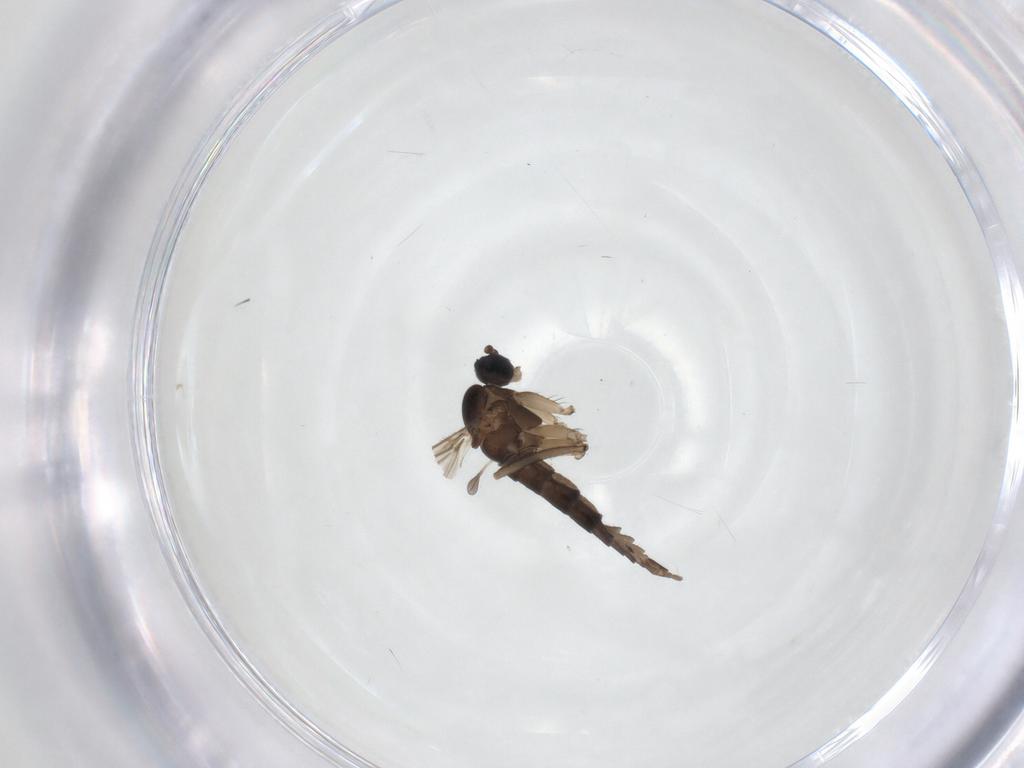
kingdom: Animalia
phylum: Arthropoda
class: Insecta
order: Diptera
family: Sciaridae
